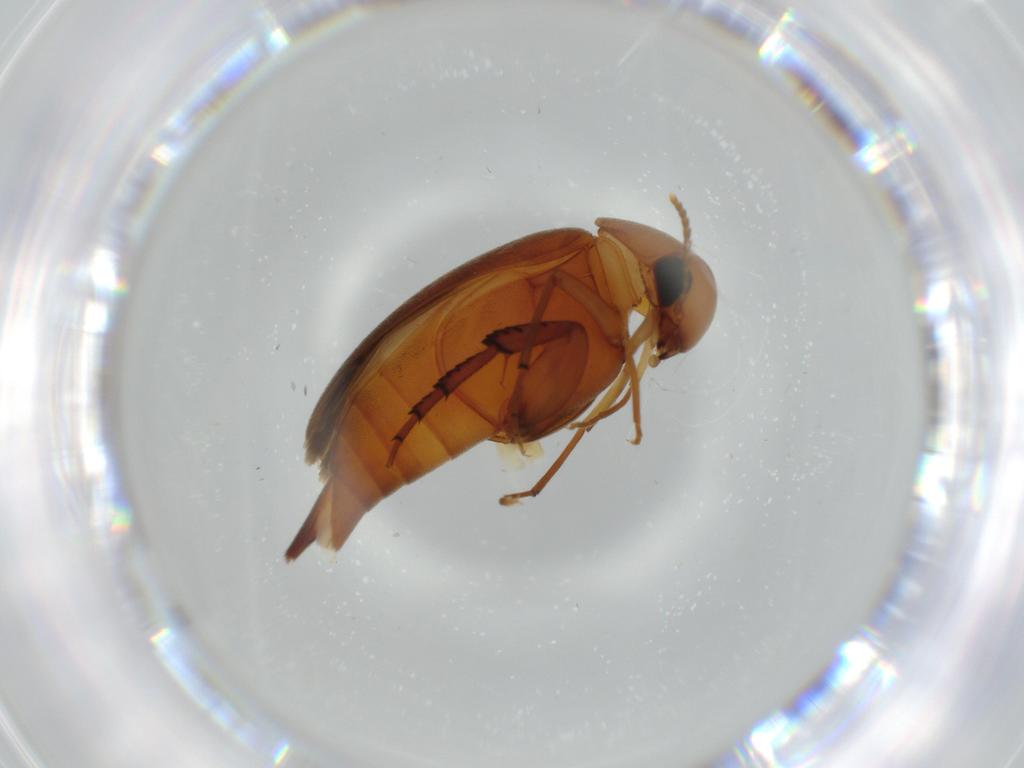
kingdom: Animalia
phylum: Arthropoda
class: Insecta
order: Coleoptera
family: Mordellidae
